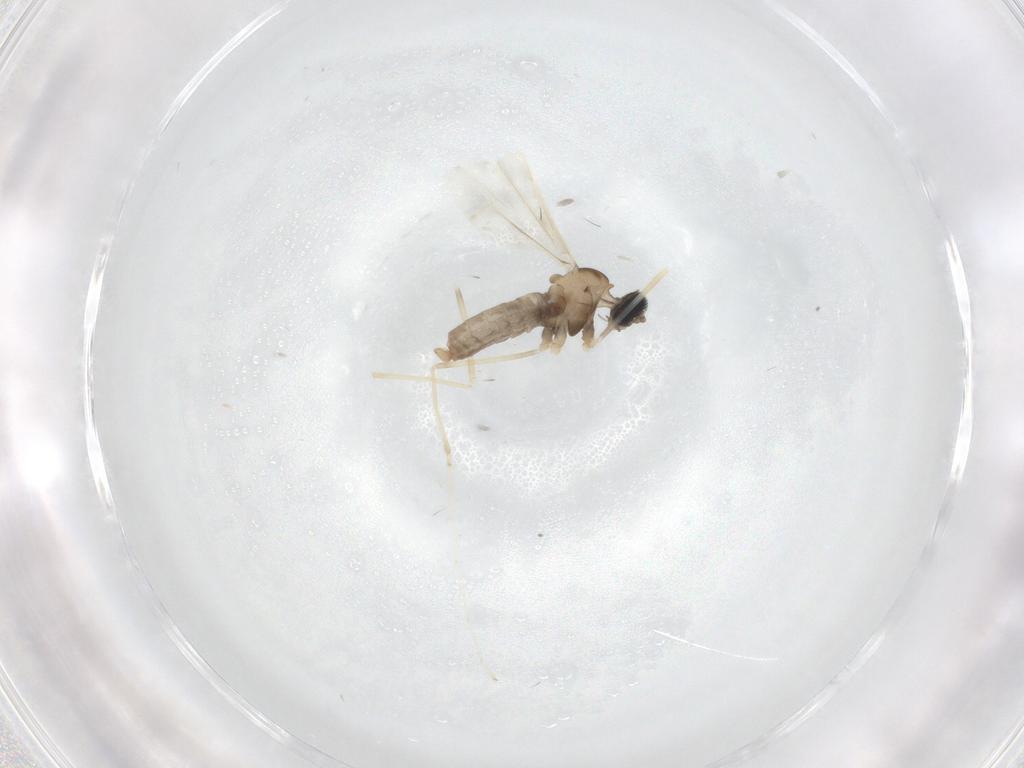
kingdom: Animalia
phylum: Arthropoda
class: Insecta
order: Diptera
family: Cecidomyiidae
